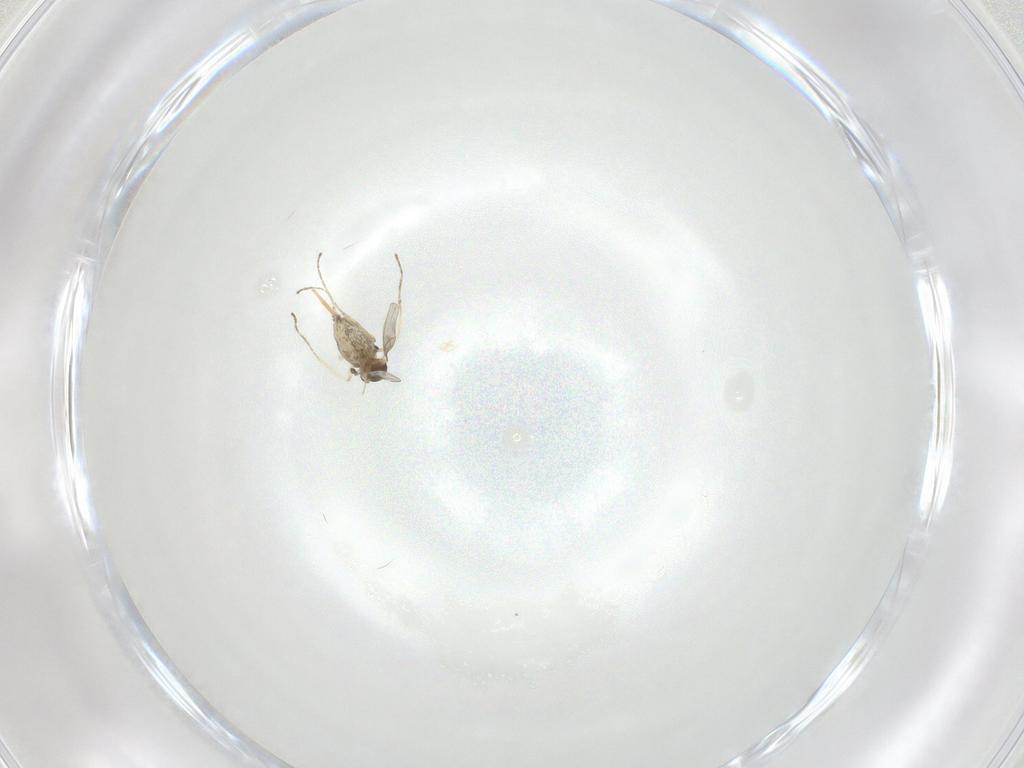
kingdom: Animalia
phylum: Arthropoda
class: Insecta
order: Diptera
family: Cecidomyiidae
